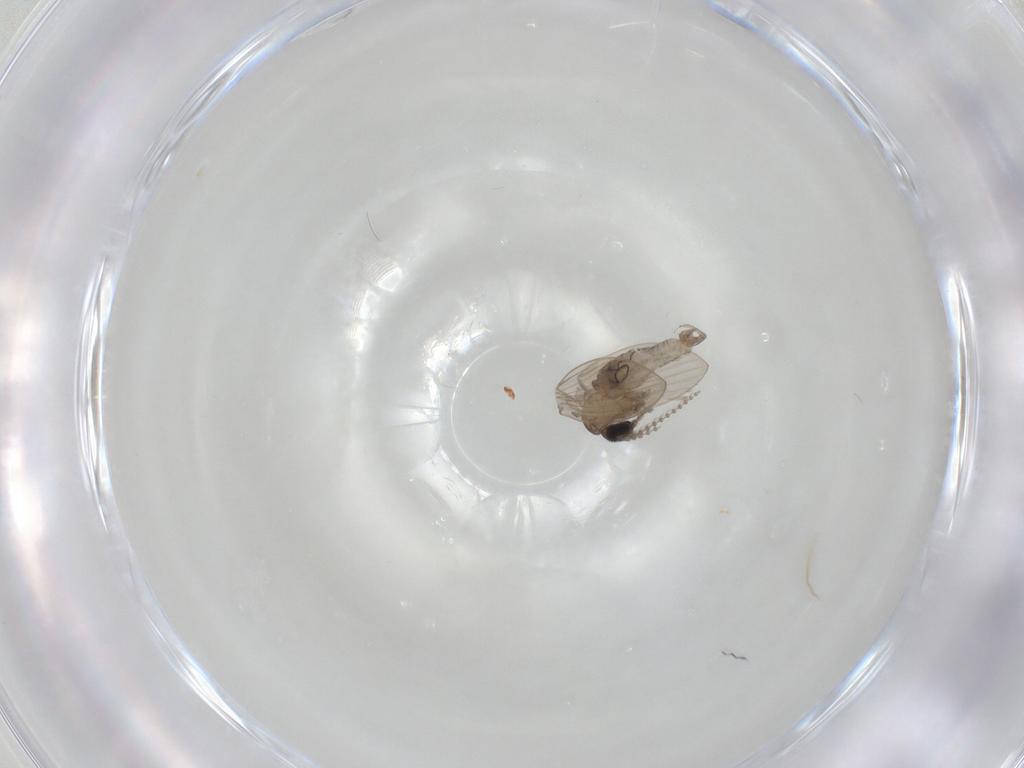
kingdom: Animalia
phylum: Arthropoda
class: Insecta
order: Diptera
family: Psychodidae
